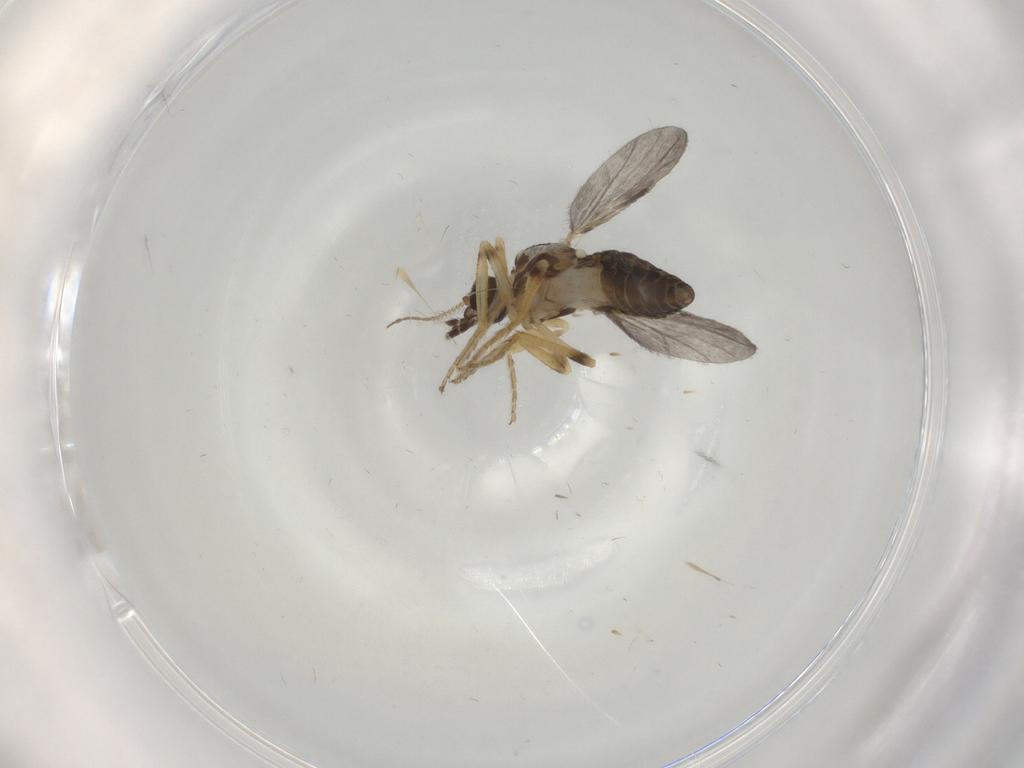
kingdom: Animalia
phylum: Arthropoda
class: Insecta
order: Diptera
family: Ceratopogonidae
